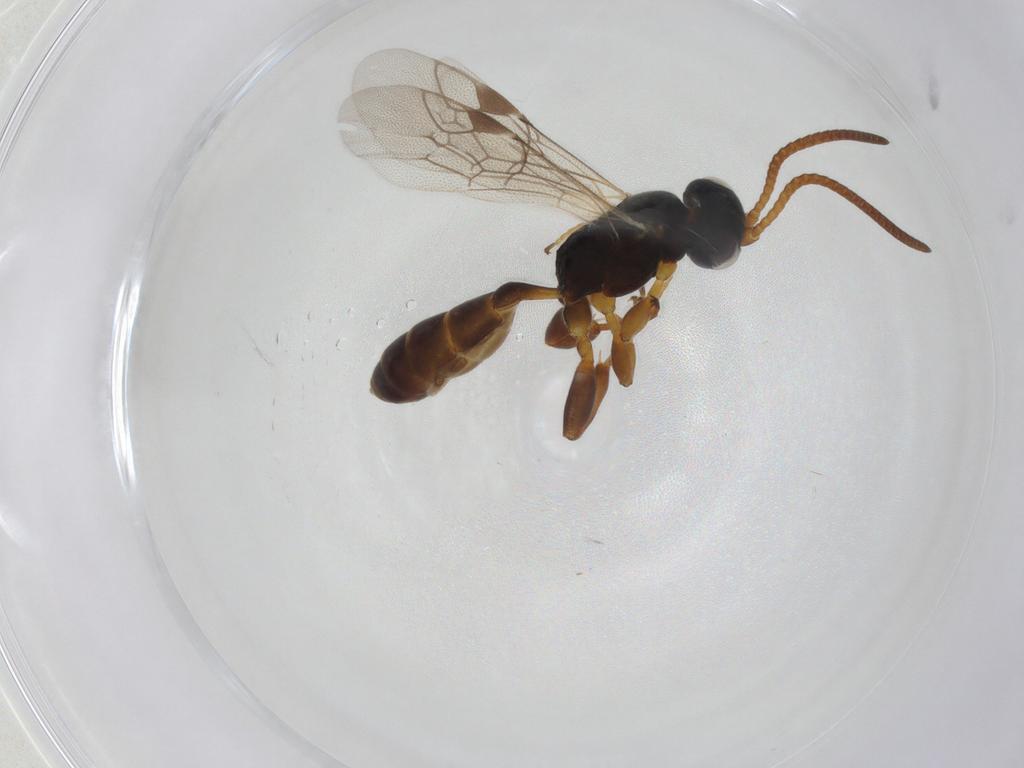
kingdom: Animalia
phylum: Arthropoda
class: Insecta
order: Hymenoptera
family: Ichneumonidae
